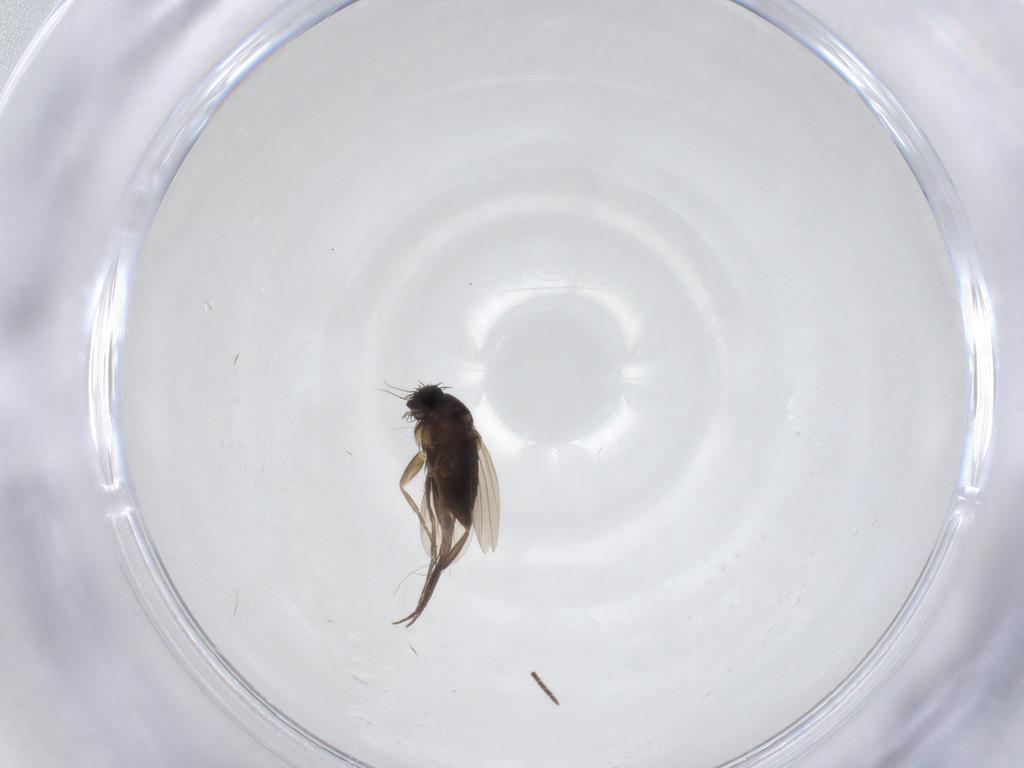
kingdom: Animalia
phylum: Arthropoda
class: Insecta
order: Diptera
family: Phoridae
